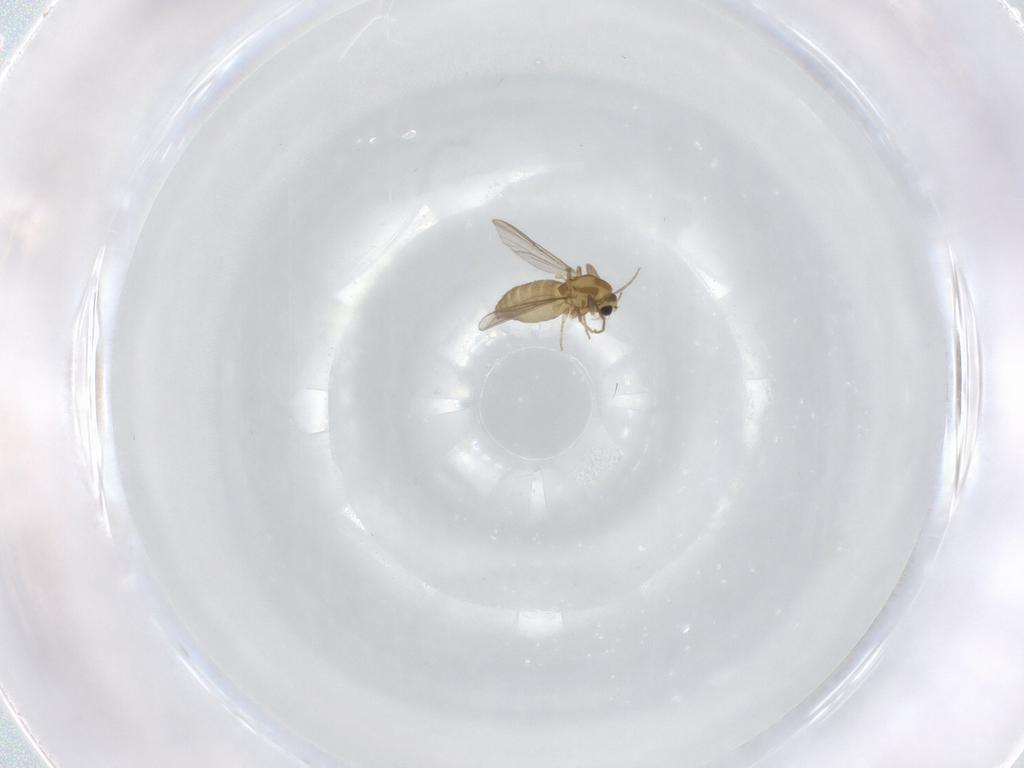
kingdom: Animalia
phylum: Arthropoda
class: Insecta
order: Diptera
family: Chironomidae
